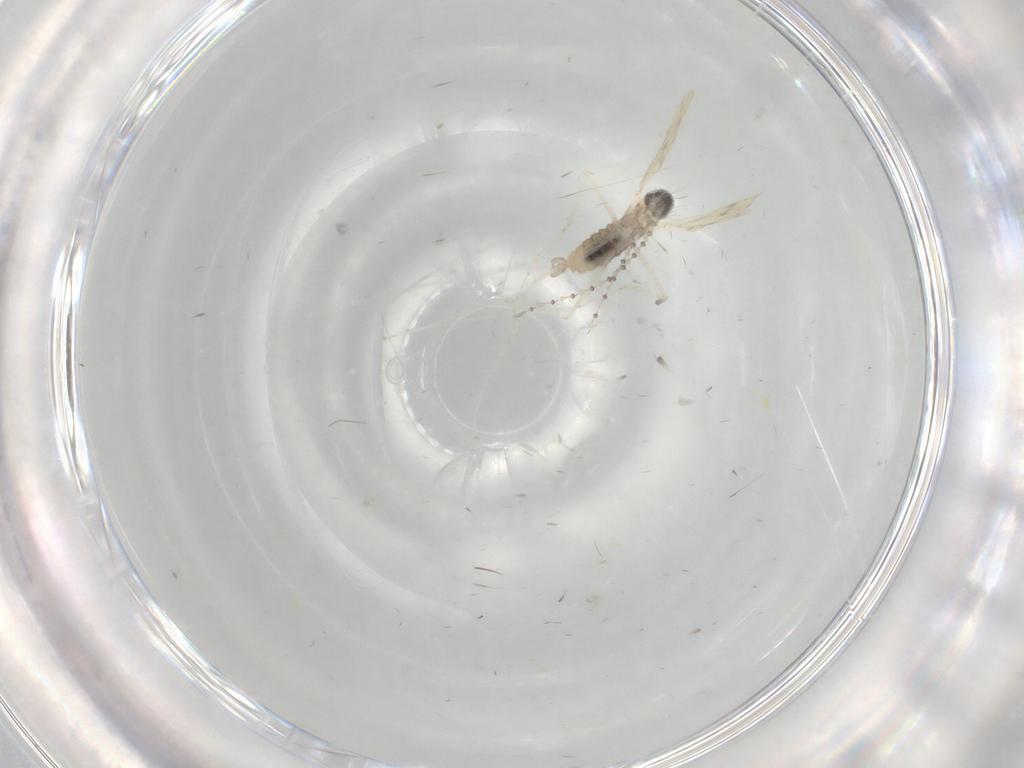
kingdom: Animalia
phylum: Arthropoda
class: Insecta
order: Diptera
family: Cecidomyiidae
